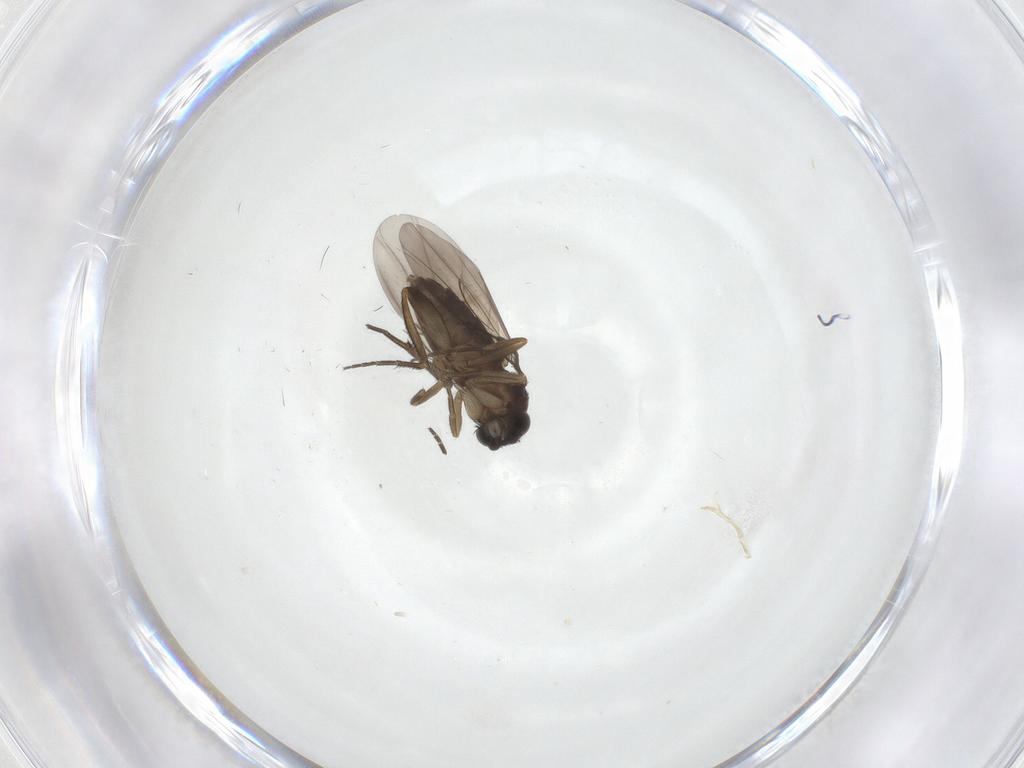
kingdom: Animalia
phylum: Arthropoda
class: Insecta
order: Diptera
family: Phoridae
